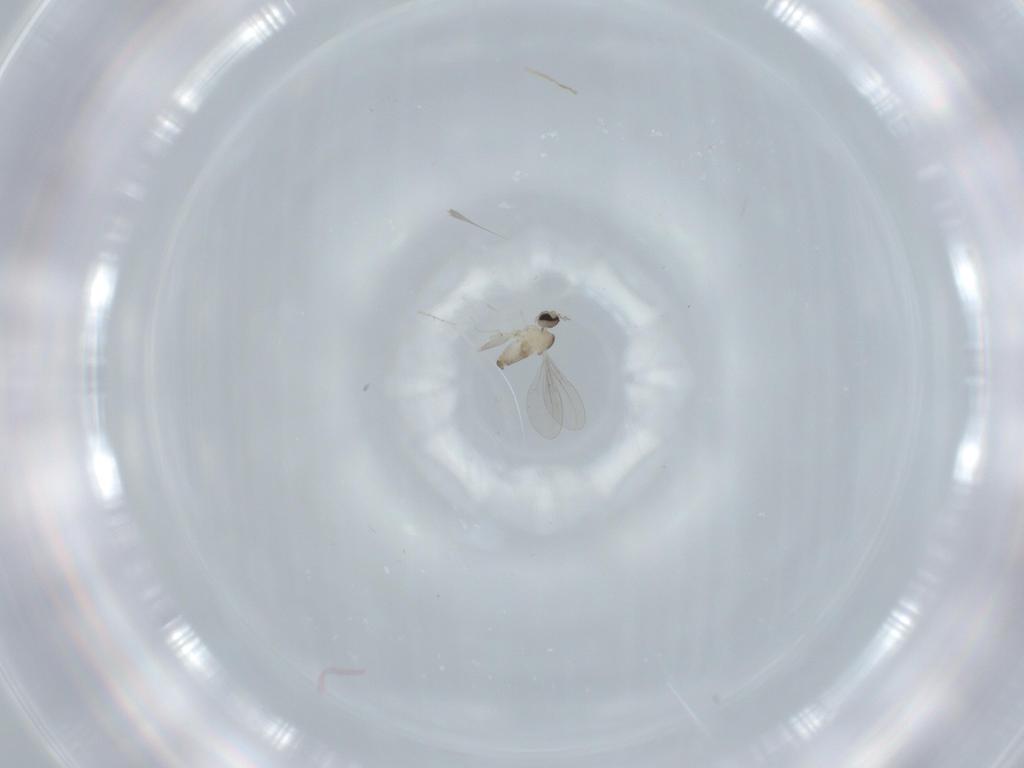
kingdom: Animalia
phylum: Arthropoda
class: Insecta
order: Diptera
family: Cecidomyiidae
